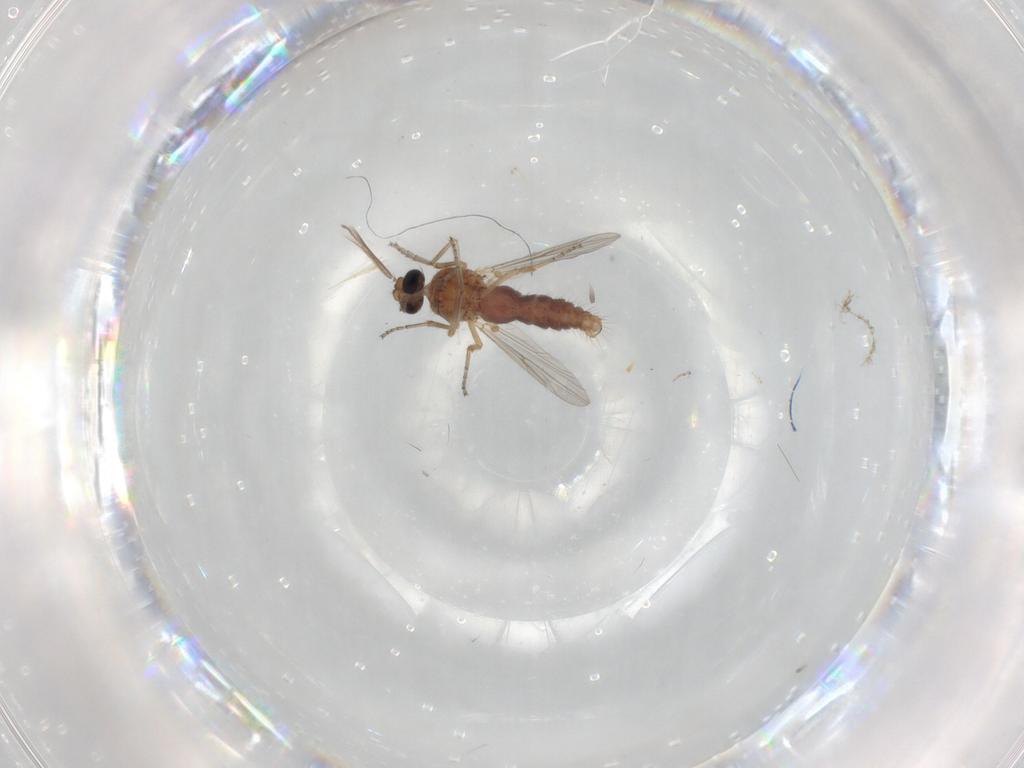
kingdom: Animalia
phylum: Arthropoda
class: Insecta
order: Diptera
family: Ceratopogonidae
